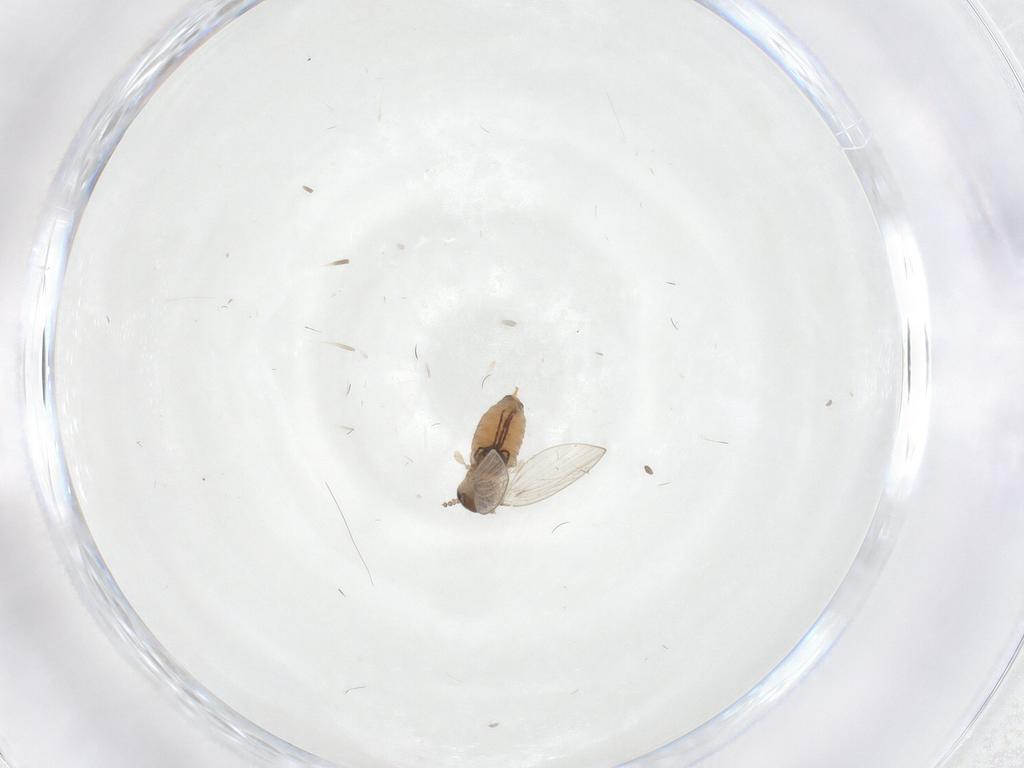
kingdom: Animalia
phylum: Arthropoda
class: Insecta
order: Diptera
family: Psychodidae
